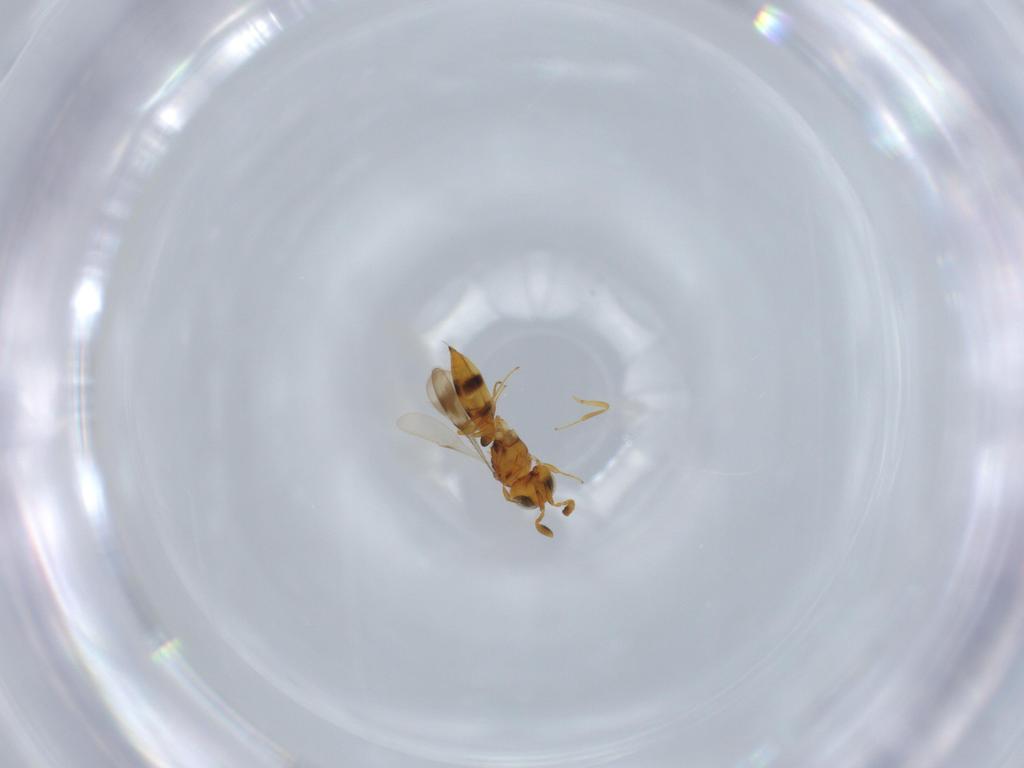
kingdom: Animalia
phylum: Arthropoda
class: Insecta
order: Hymenoptera
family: Scelionidae
